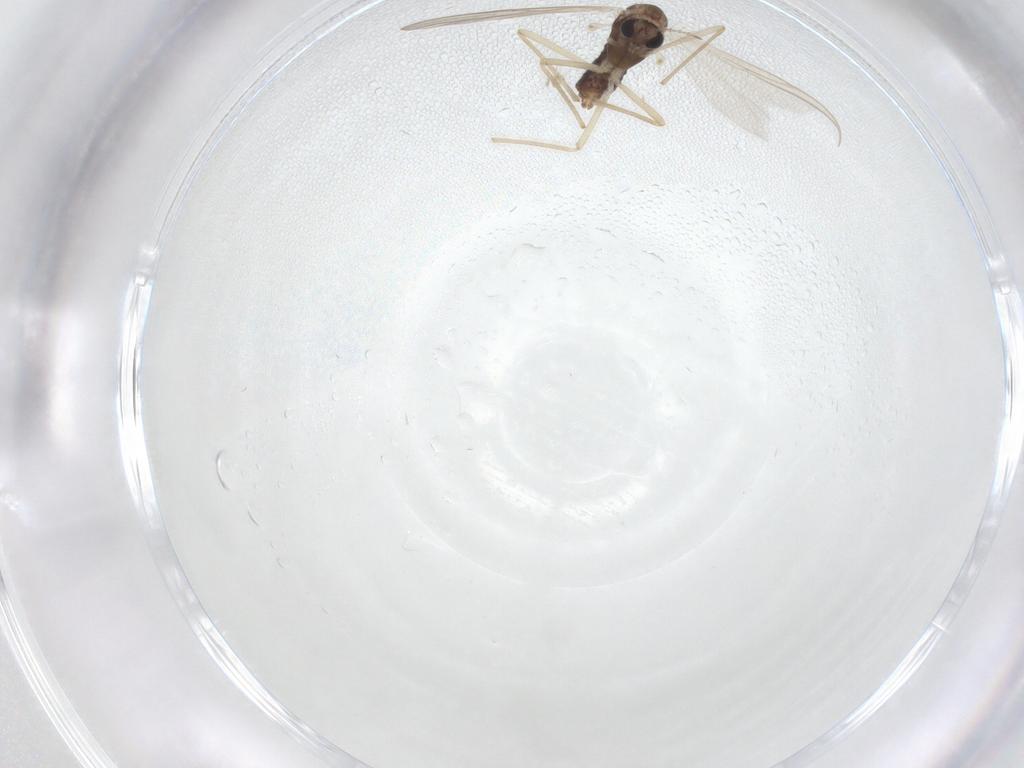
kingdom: Animalia
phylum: Arthropoda
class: Insecta
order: Diptera
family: Chironomidae
